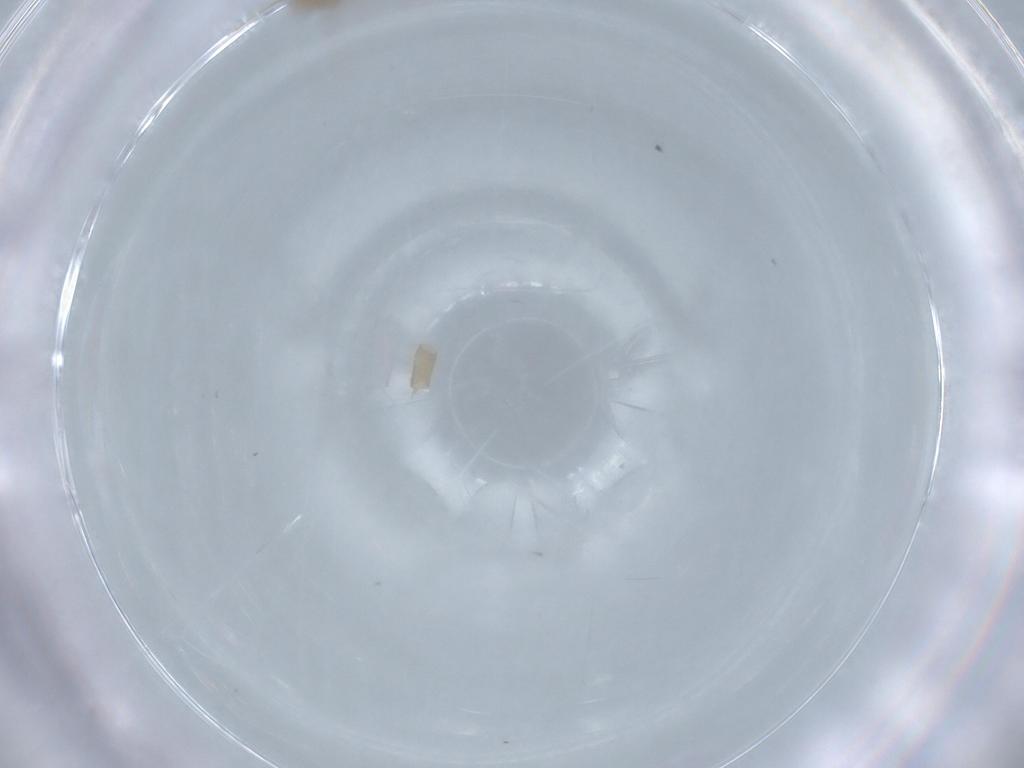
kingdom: Animalia
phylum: Arthropoda
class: Insecta
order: Diptera
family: Cecidomyiidae
